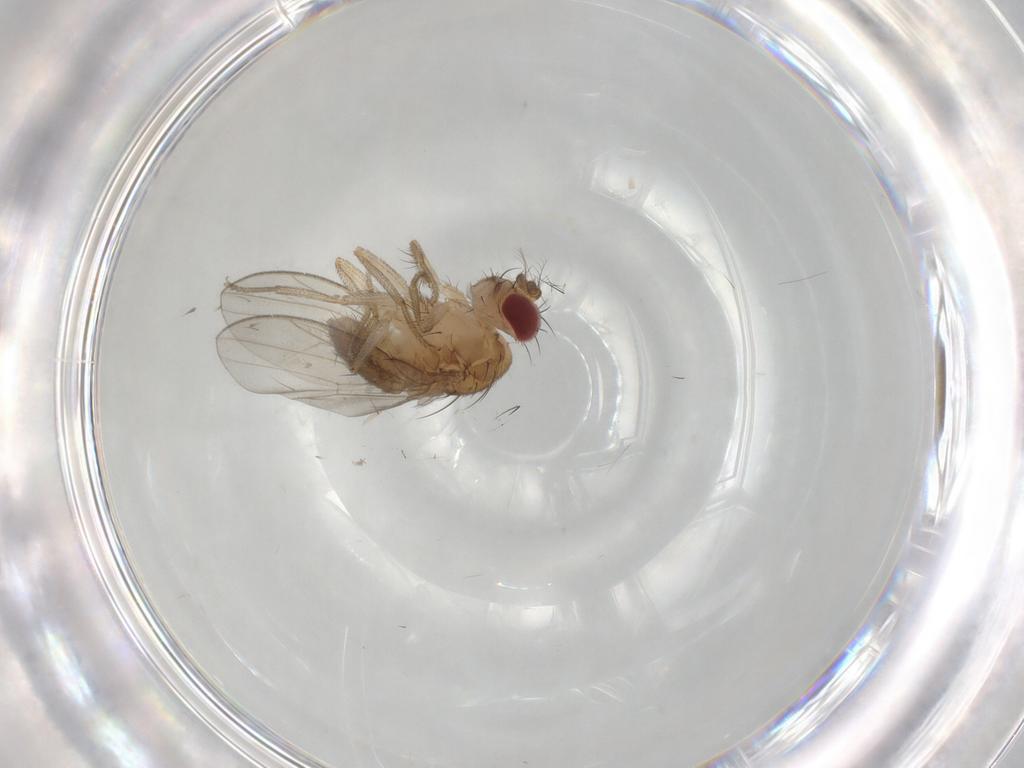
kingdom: Animalia
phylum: Arthropoda
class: Insecta
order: Diptera
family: Drosophilidae
